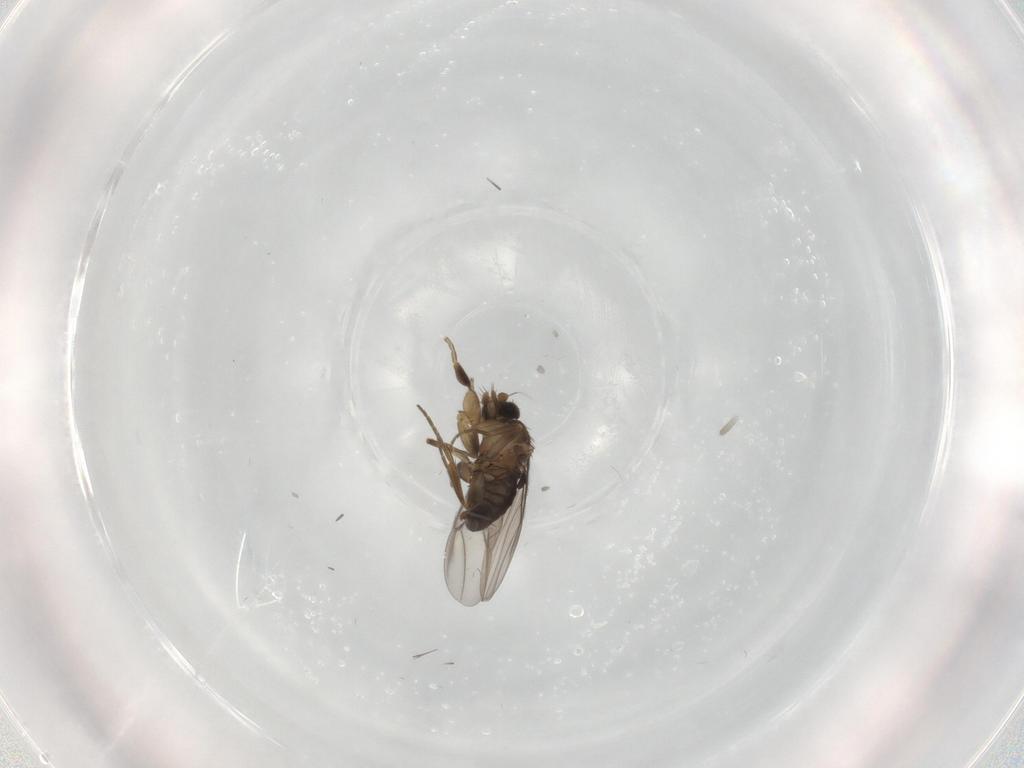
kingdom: Animalia
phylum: Arthropoda
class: Insecta
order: Diptera
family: Phoridae
